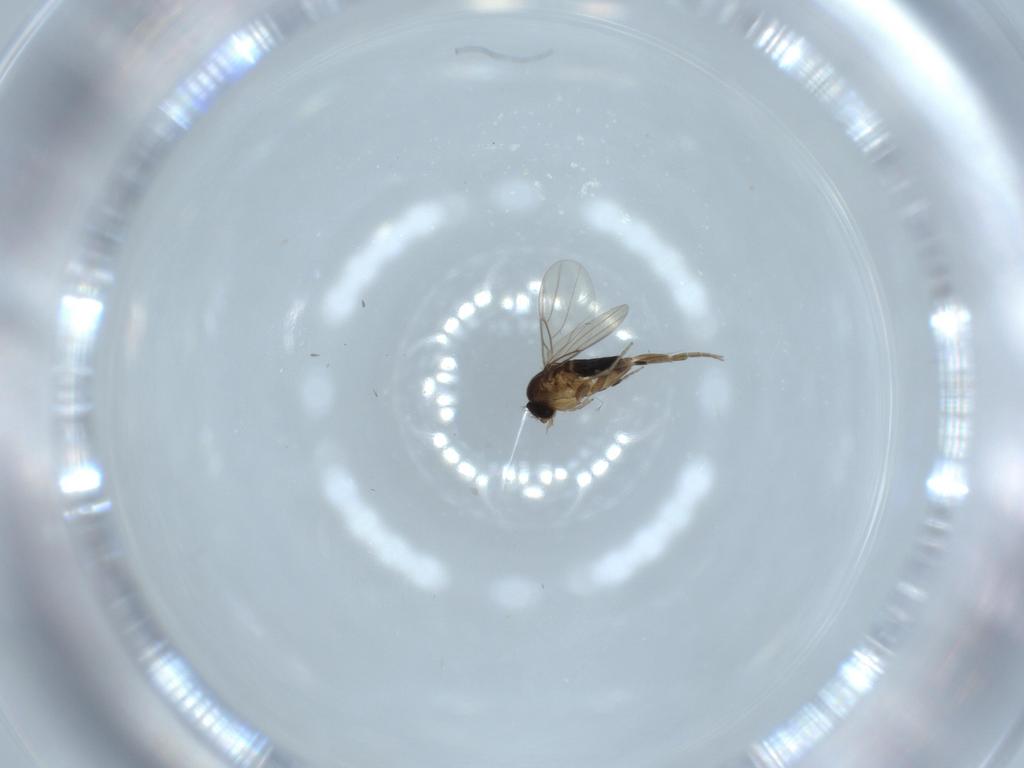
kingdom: Animalia
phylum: Arthropoda
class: Insecta
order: Diptera
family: Phoridae
